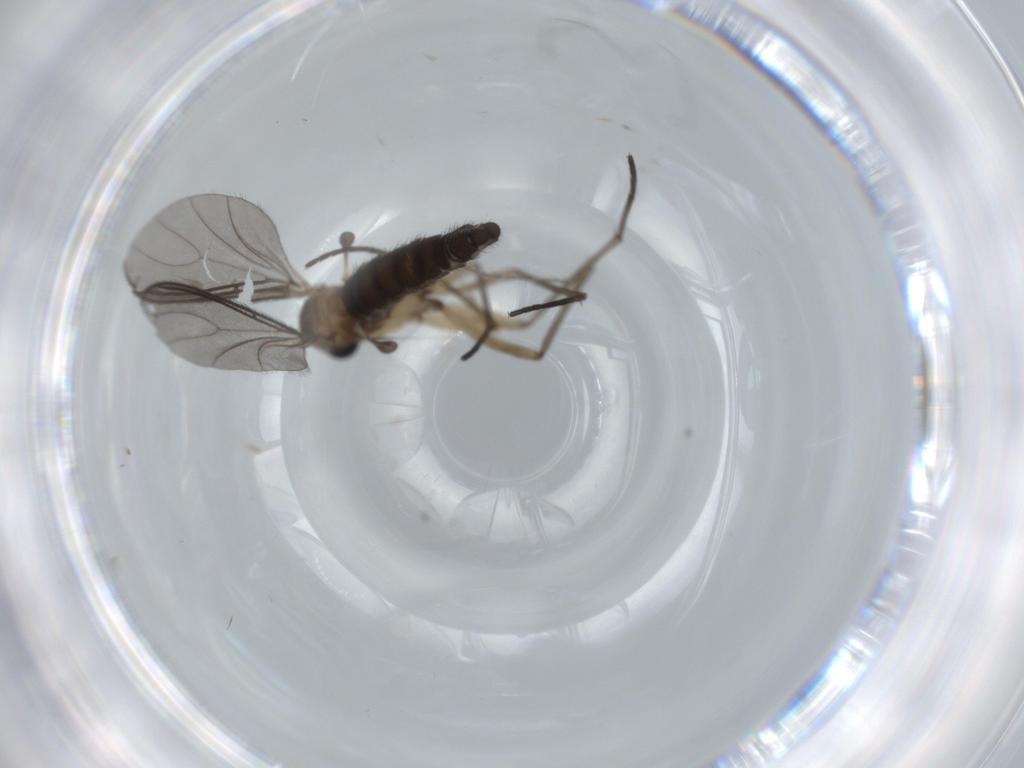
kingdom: Animalia
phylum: Arthropoda
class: Insecta
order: Diptera
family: Sciaridae
